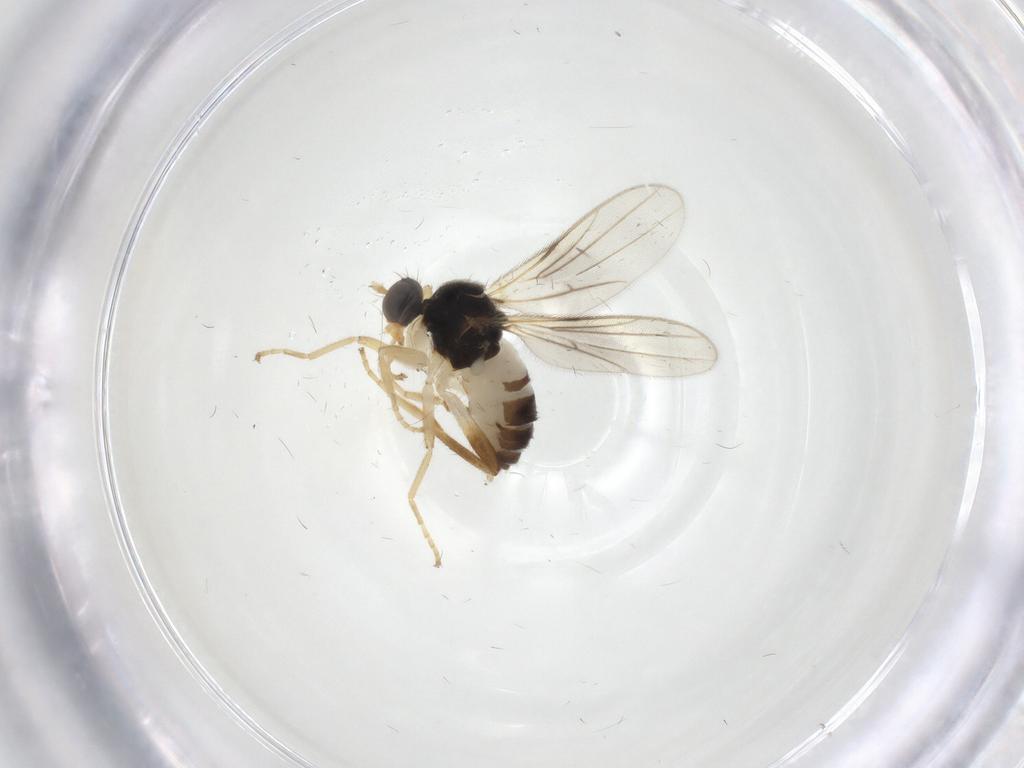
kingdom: Animalia
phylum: Arthropoda
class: Insecta
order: Diptera
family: Hybotidae
